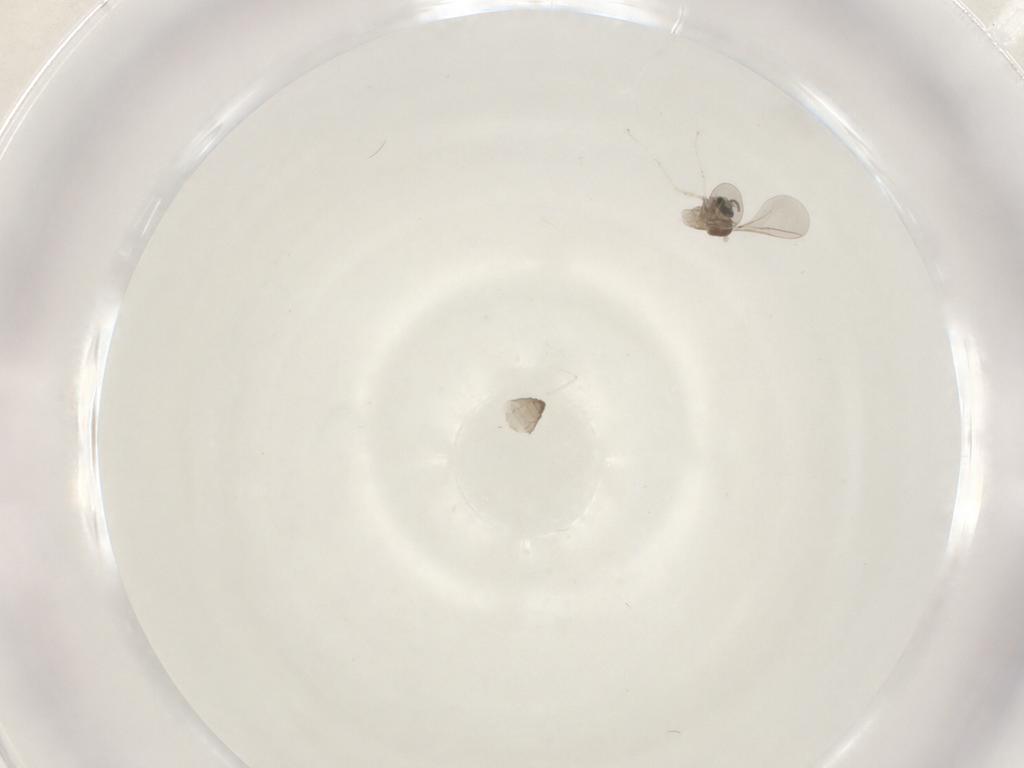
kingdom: Animalia
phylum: Arthropoda
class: Insecta
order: Diptera
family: Cecidomyiidae
